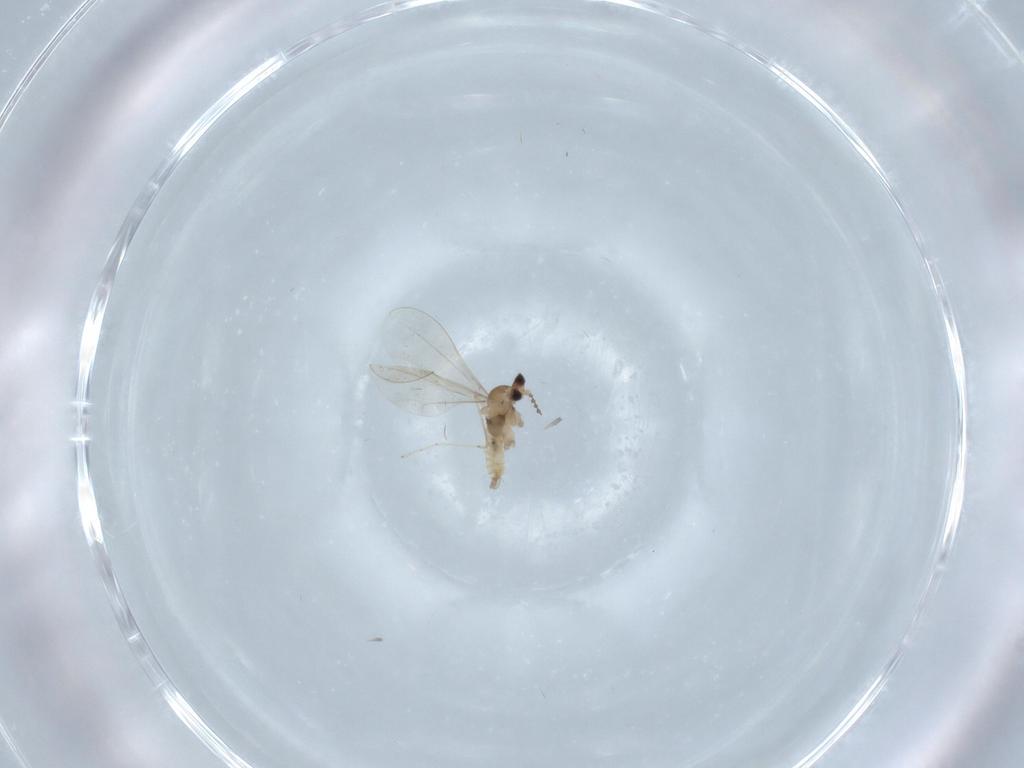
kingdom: Animalia
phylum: Arthropoda
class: Insecta
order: Diptera
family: Cecidomyiidae
